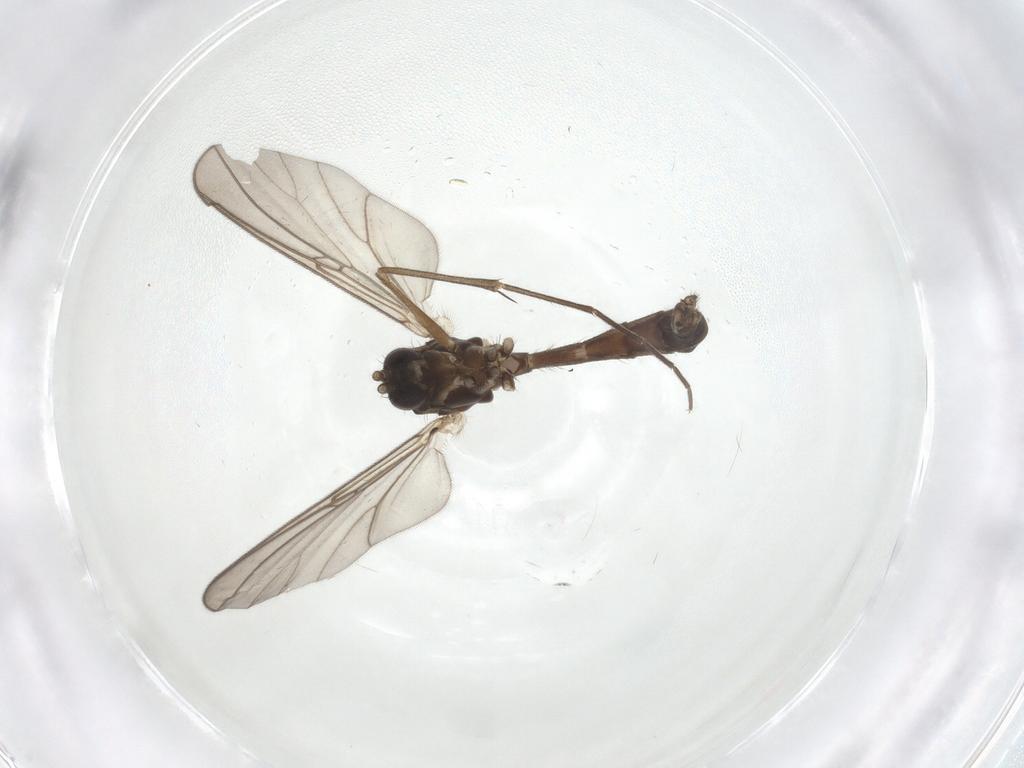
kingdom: Animalia
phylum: Arthropoda
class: Insecta
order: Diptera
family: Mycetophilidae
